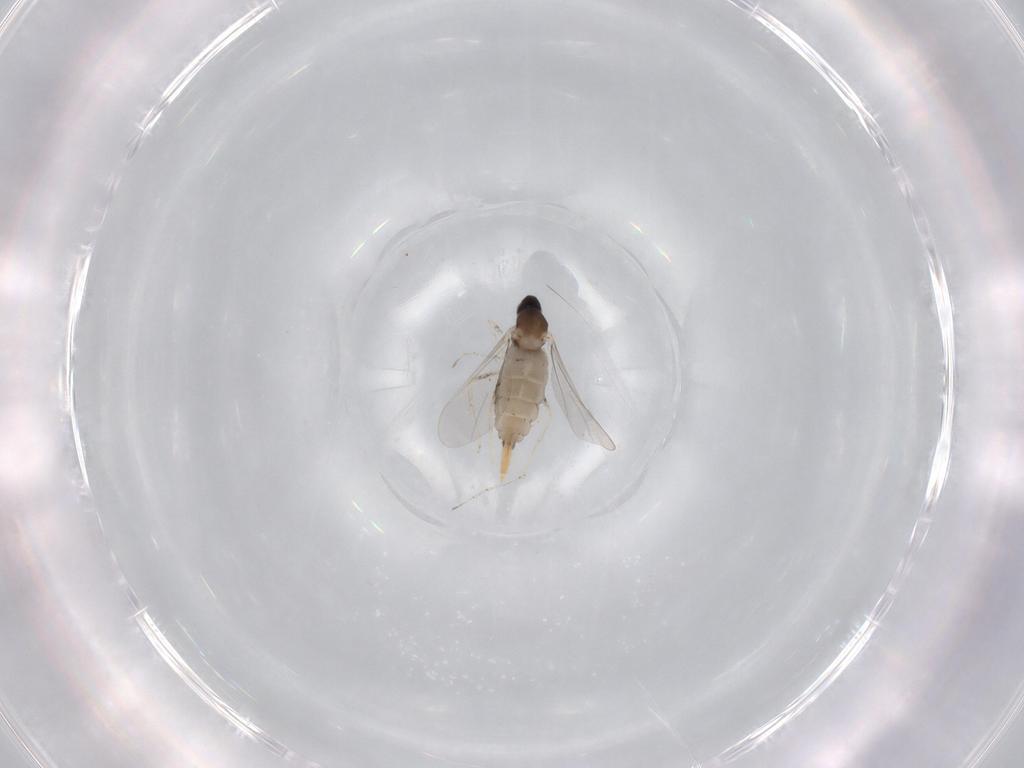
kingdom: Animalia
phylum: Arthropoda
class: Insecta
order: Diptera
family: Cecidomyiidae
